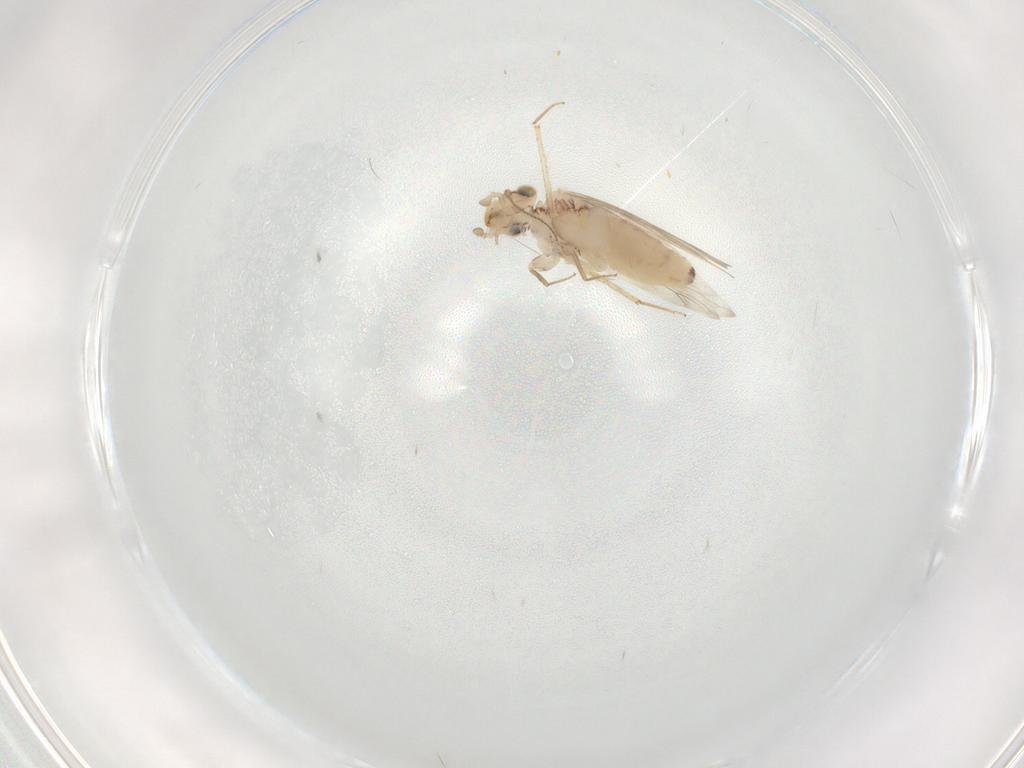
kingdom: Animalia
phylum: Arthropoda
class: Insecta
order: Psocodea
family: Lepidopsocidae
